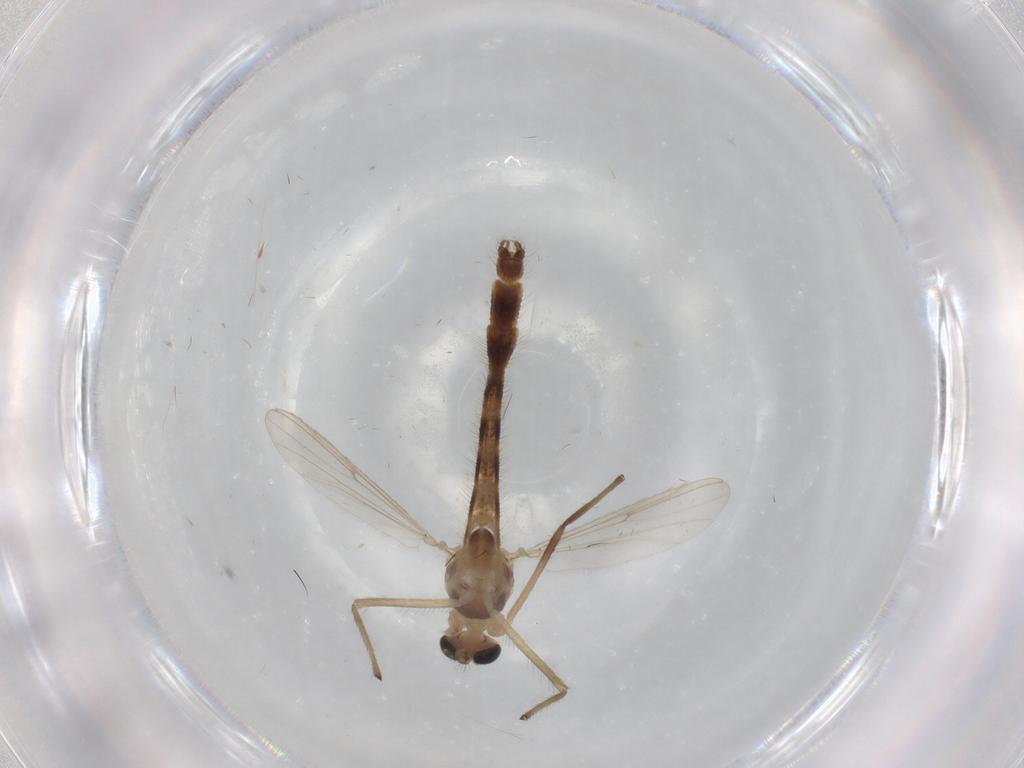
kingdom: Animalia
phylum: Arthropoda
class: Insecta
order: Diptera
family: Chironomidae
